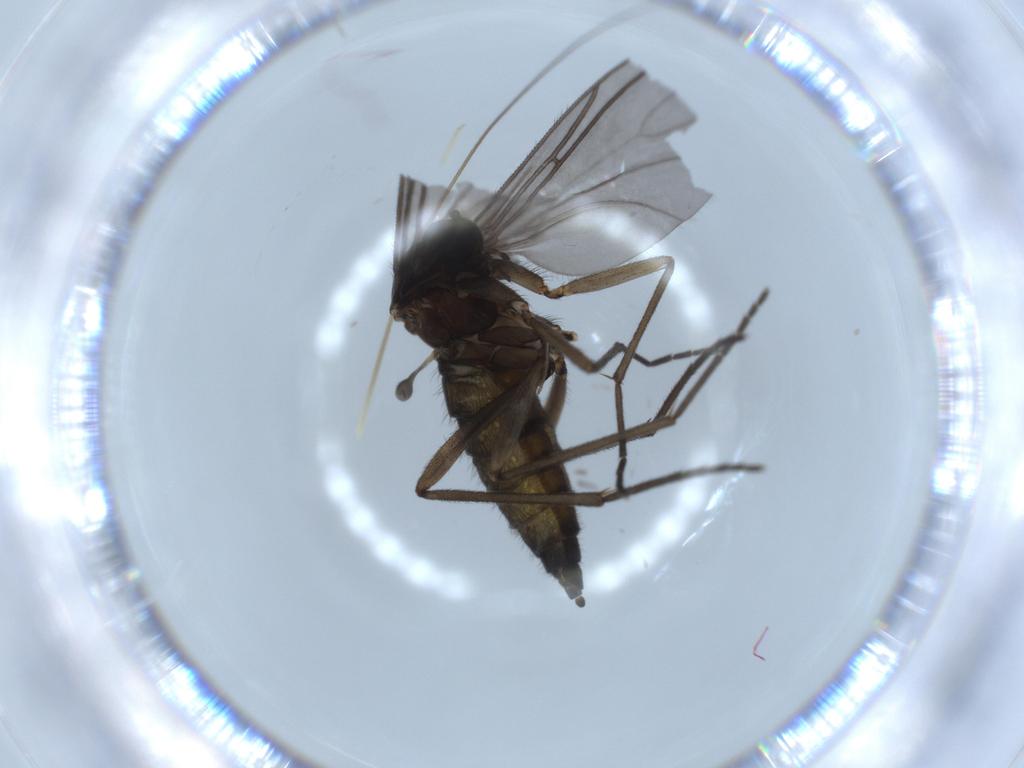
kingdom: Animalia
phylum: Arthropoda
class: Insecta
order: Diptera
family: Sciaridae
